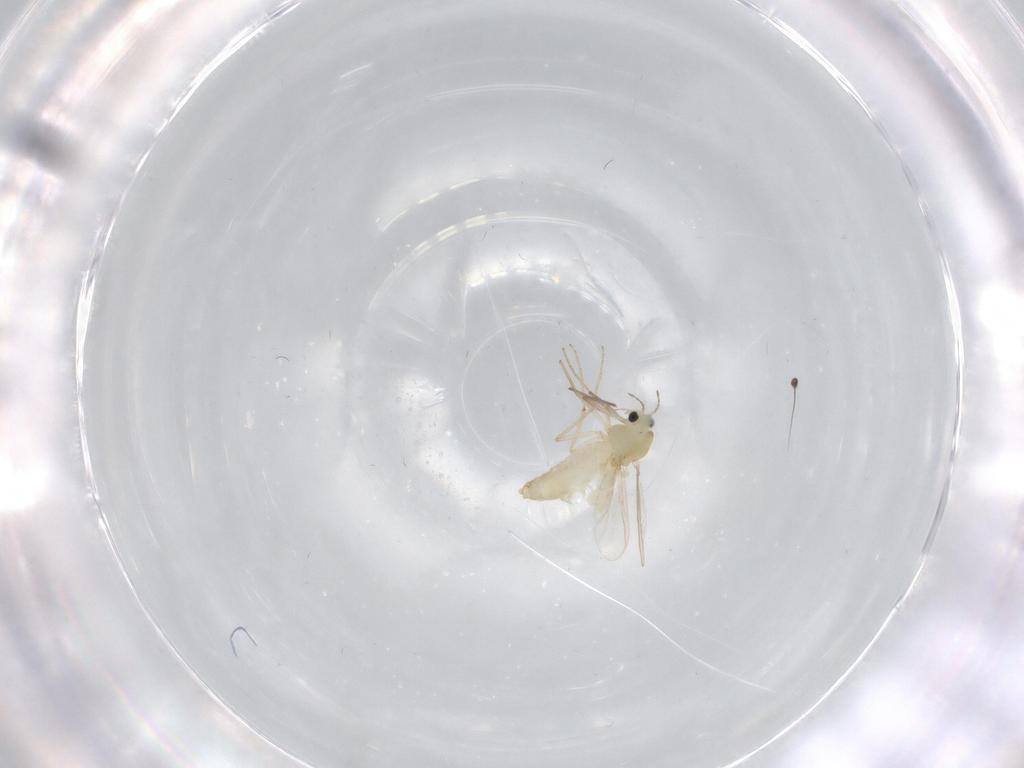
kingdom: Animalia
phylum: Arthropoda
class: Insecta
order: Diptera
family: Chironomidae
